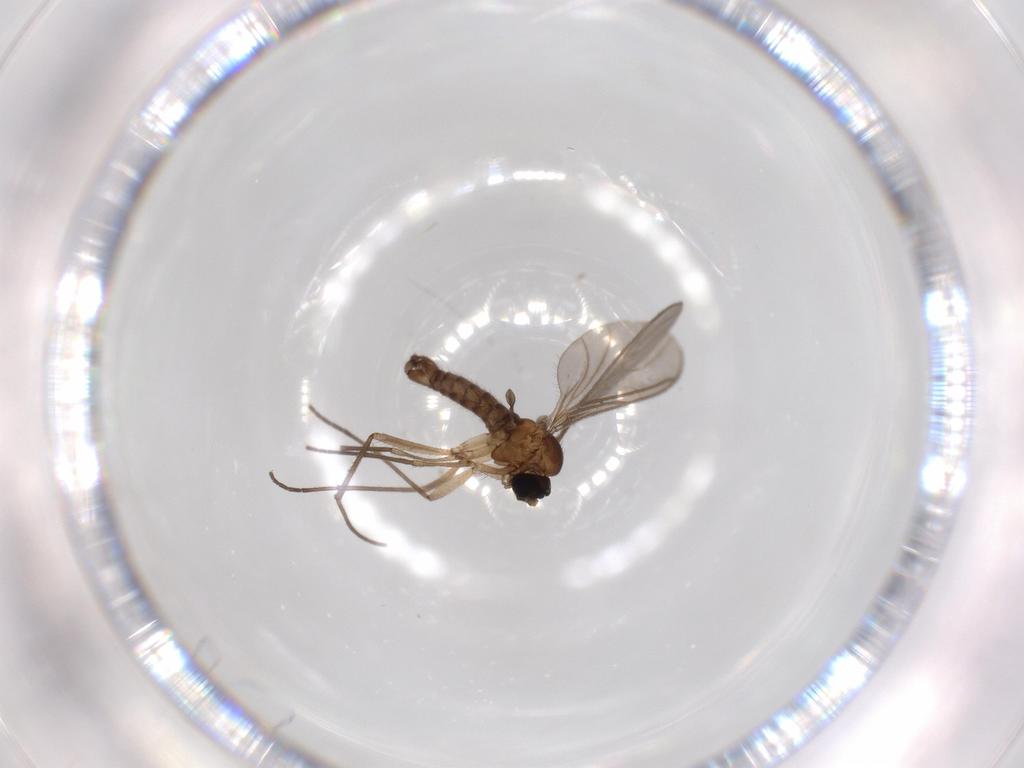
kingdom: Animalia
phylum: Arthropoda
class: Insecta
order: Diptera
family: Sciaridae
